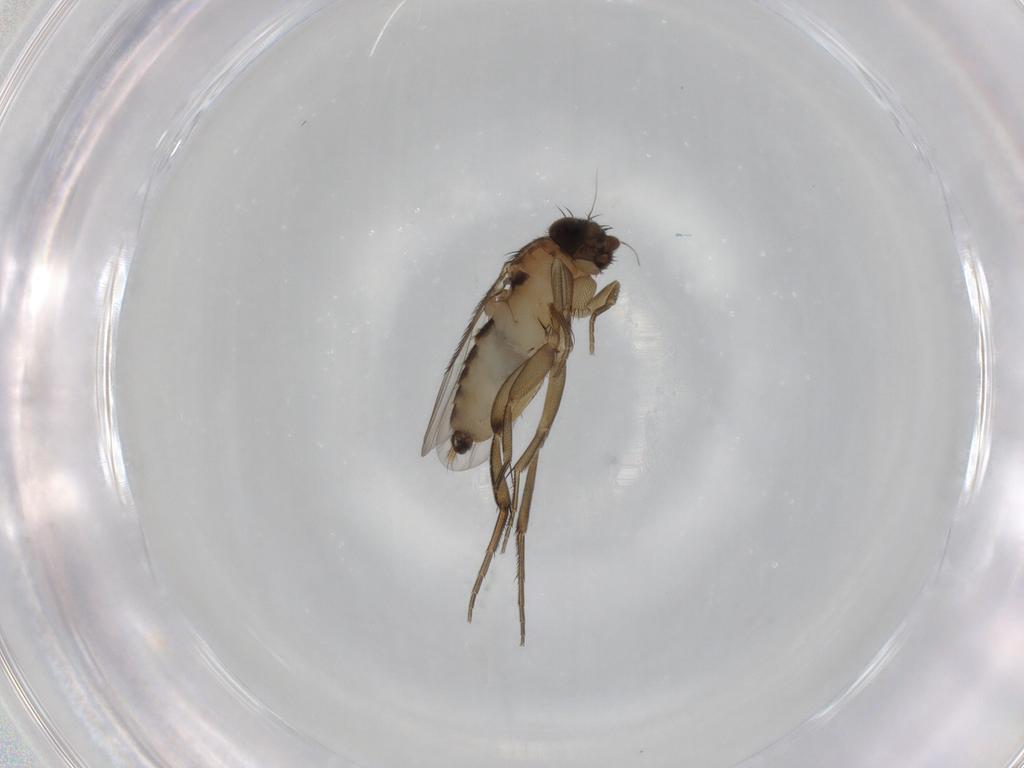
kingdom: Animalia
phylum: Arthropoda
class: Insecta
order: Diptera
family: Phoridae
